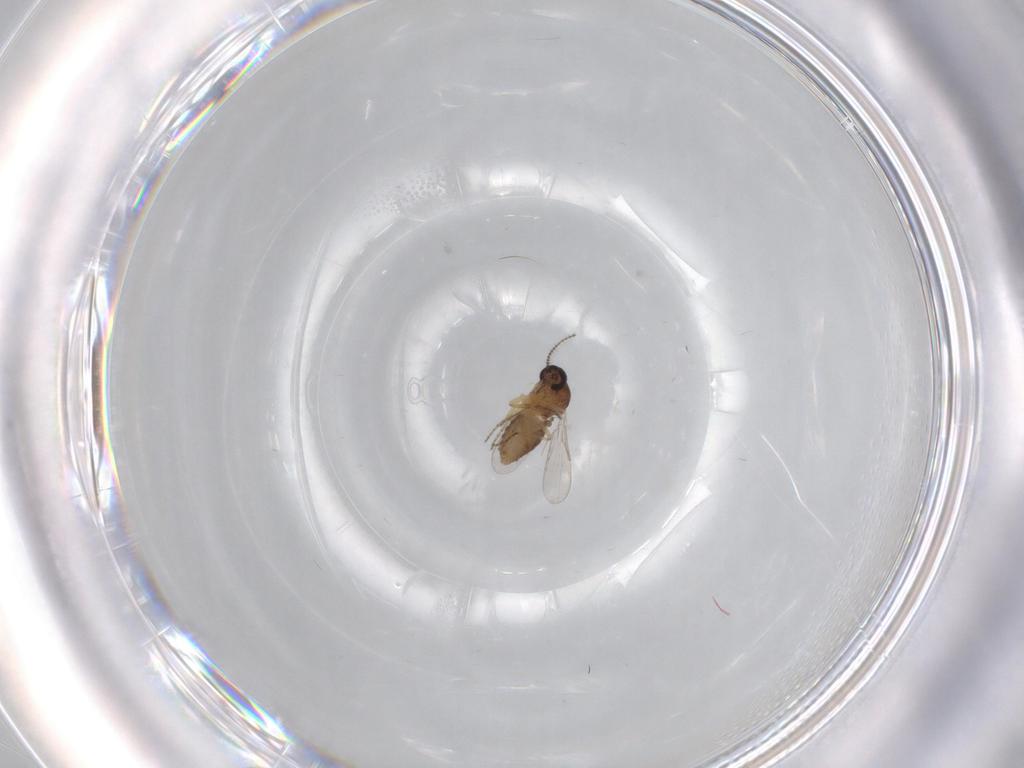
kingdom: Animalia
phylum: Arthropoda
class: Insecta
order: Diptera
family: Ceratopogonidae
